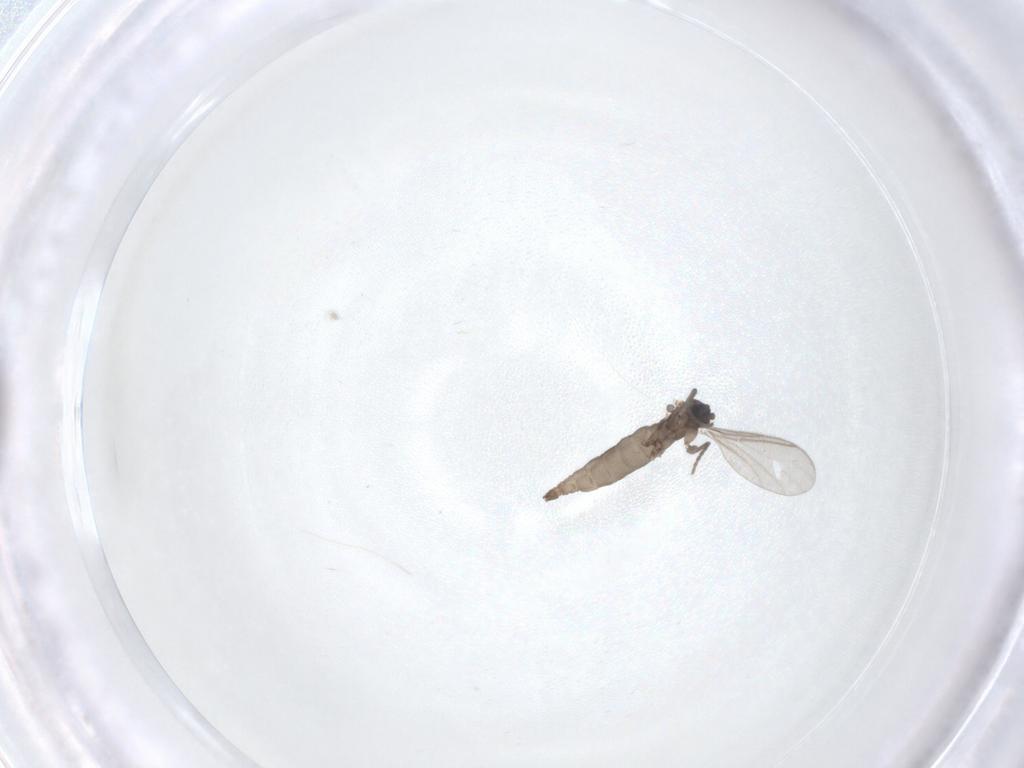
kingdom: Animalia
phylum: Arthropoda
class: Insecta
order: Diptera
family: Sciaridae
